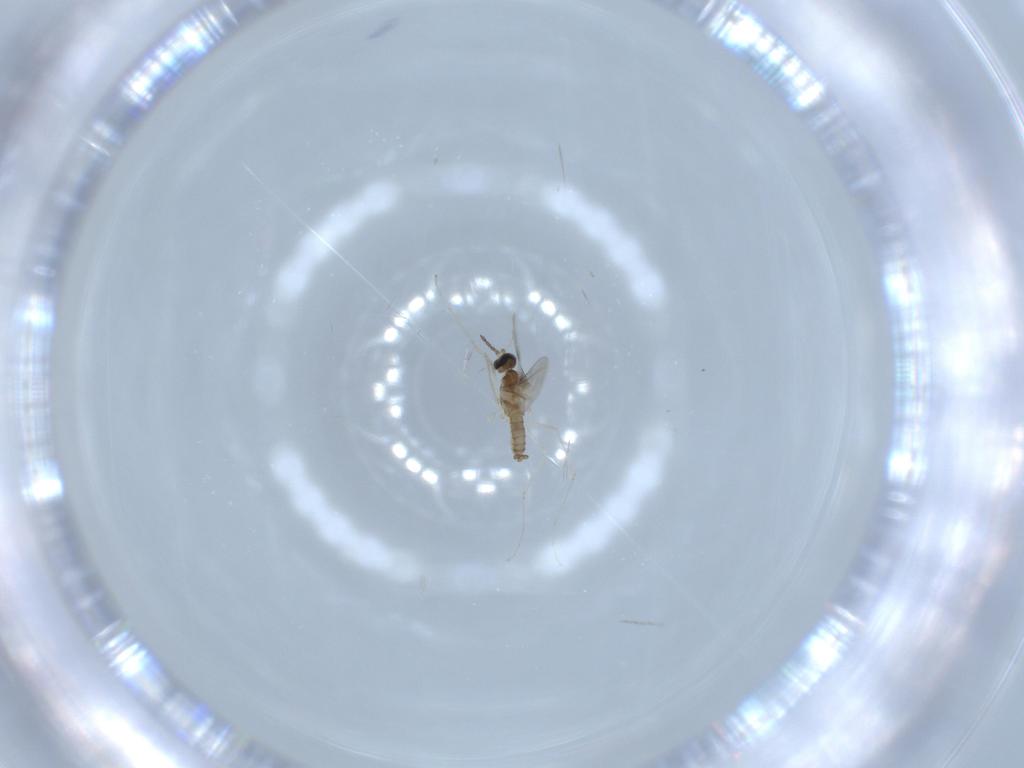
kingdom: Animalia
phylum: Arthropoda
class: Insecta
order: Diptera
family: Cecidomyiidae
